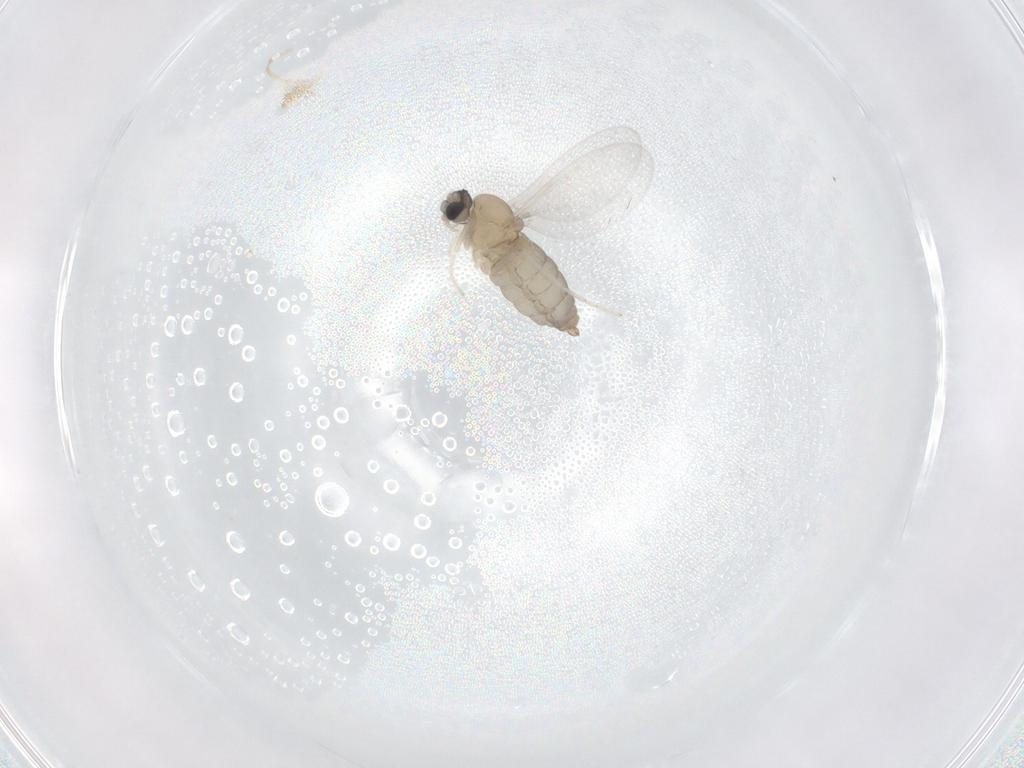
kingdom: Animalia
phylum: Arthropoda
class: Insecta
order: Diptera
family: Cecidomyiidae
